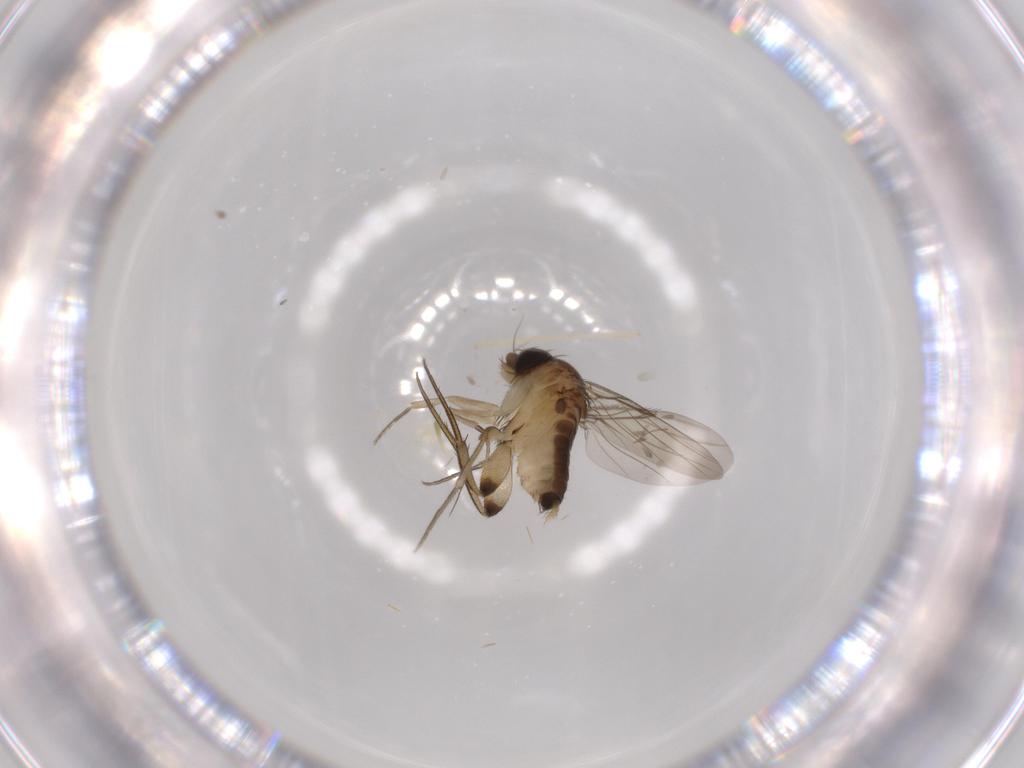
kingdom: Animalia
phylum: Arthropoda
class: Insecta
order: Diptera
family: Phoridae
